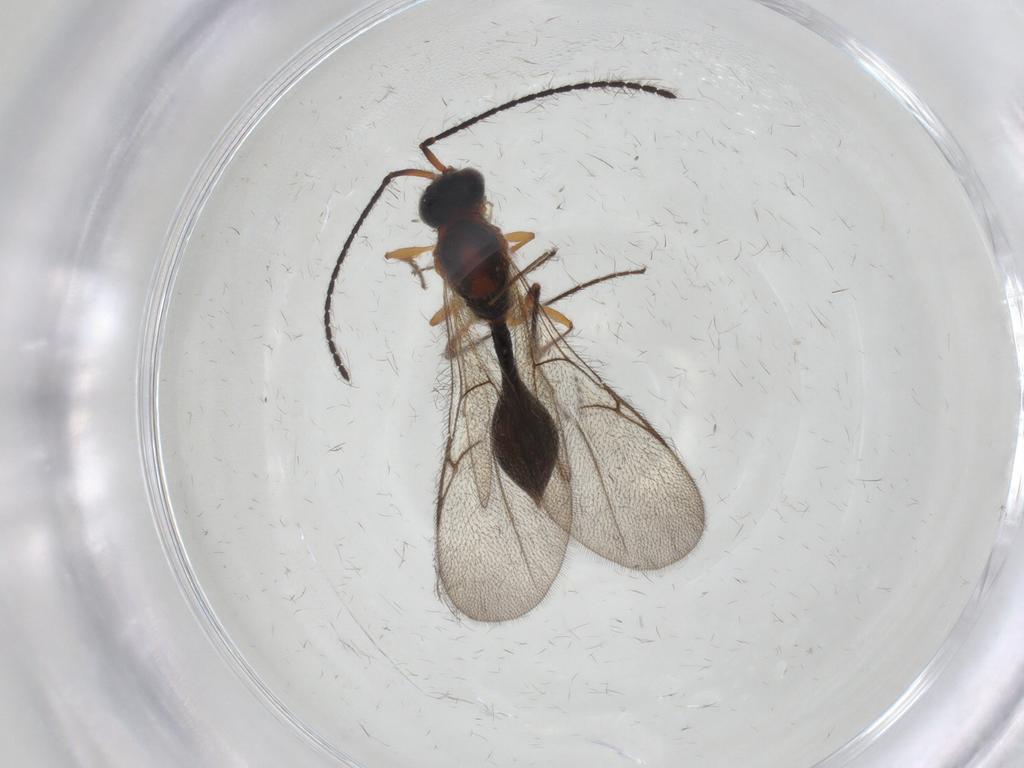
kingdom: Animalia
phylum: Arthropoda
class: Insecta
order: Hymenoptera
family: Diapriidae
